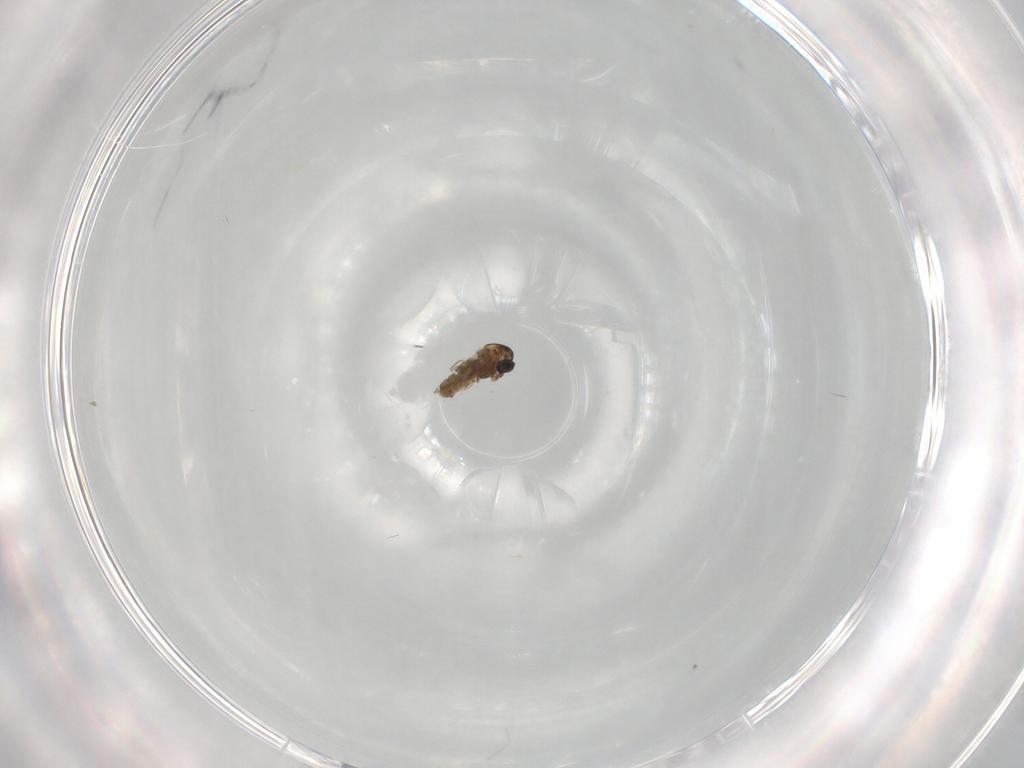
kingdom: Animalia
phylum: Arthropoda
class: Insecta
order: Diptera
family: Ceratopogonidae
